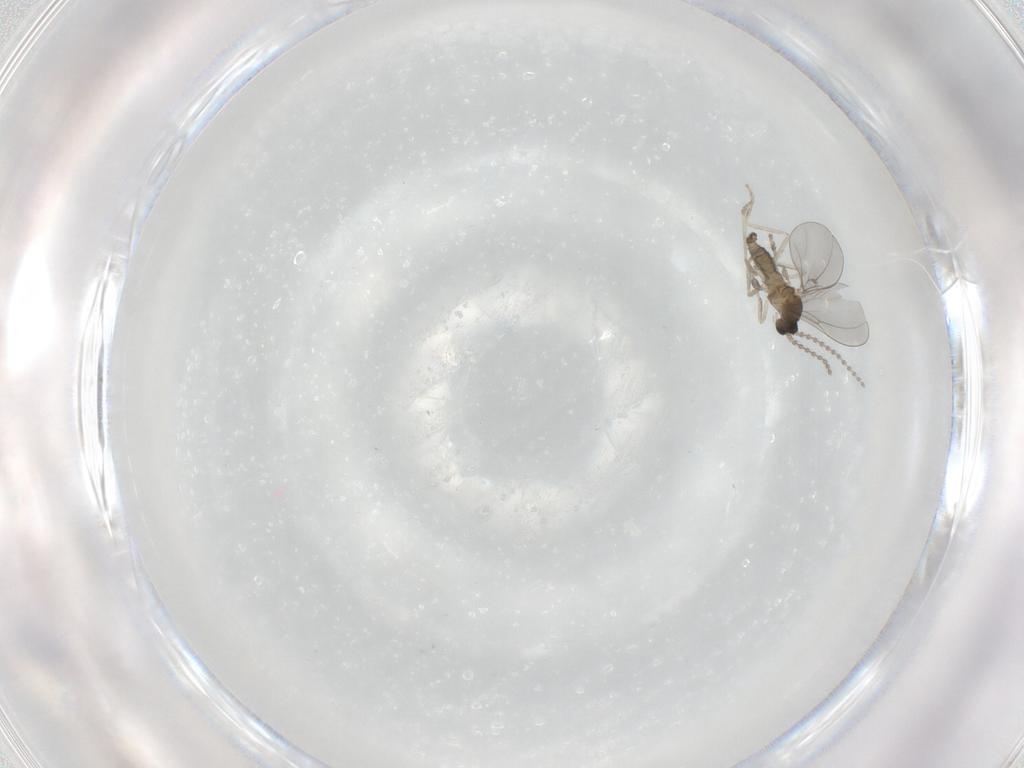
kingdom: Animalia
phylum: Arthropoda
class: Insecta
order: Diptera
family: Cecidomyiidae
